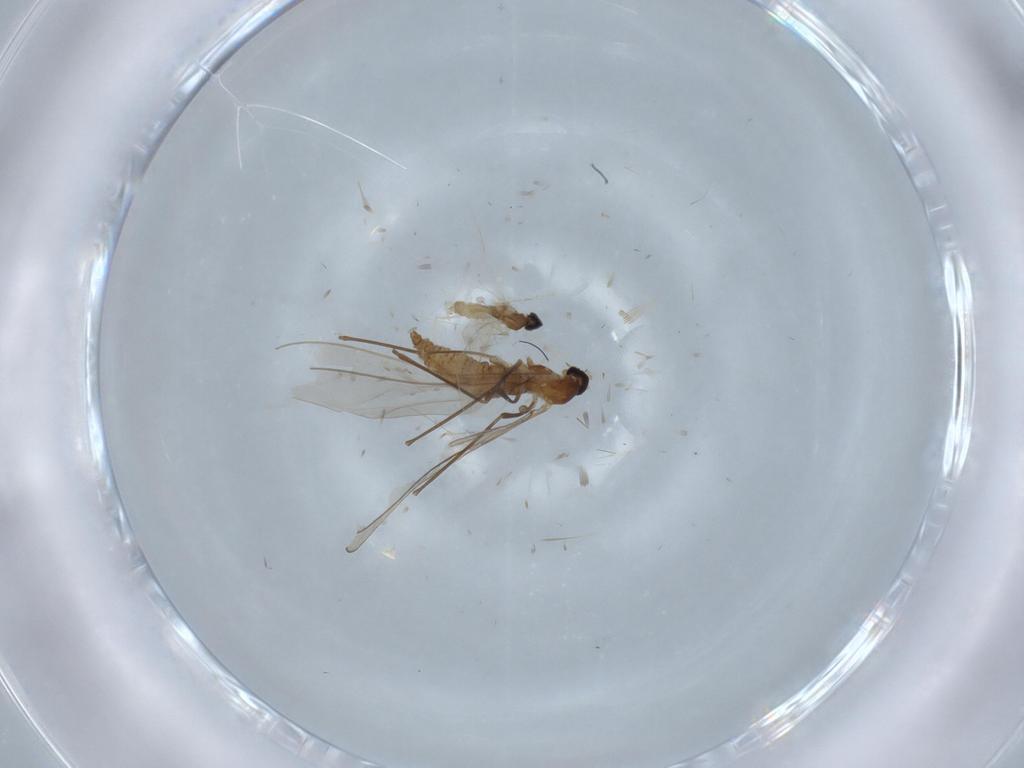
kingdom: Animalia
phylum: Arthropoda
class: Insecta
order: Diptera
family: Cecidomyiidae
